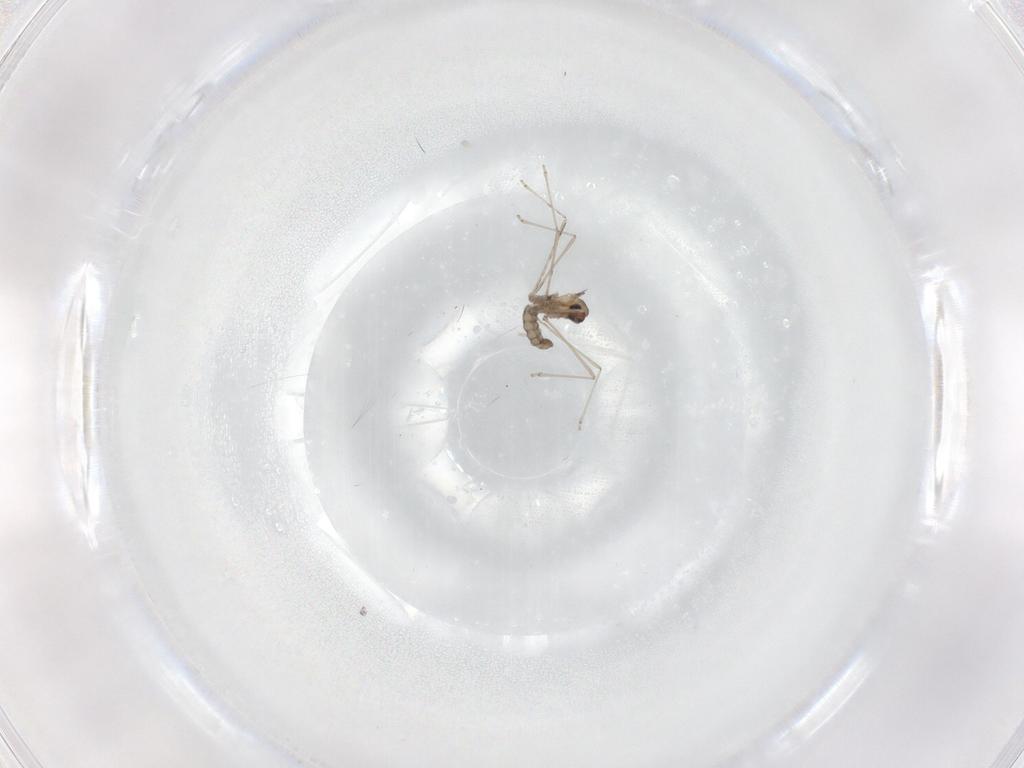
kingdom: Animalia
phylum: Arthropoda
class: Insecta
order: Diptera
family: Cecidomyiidae
